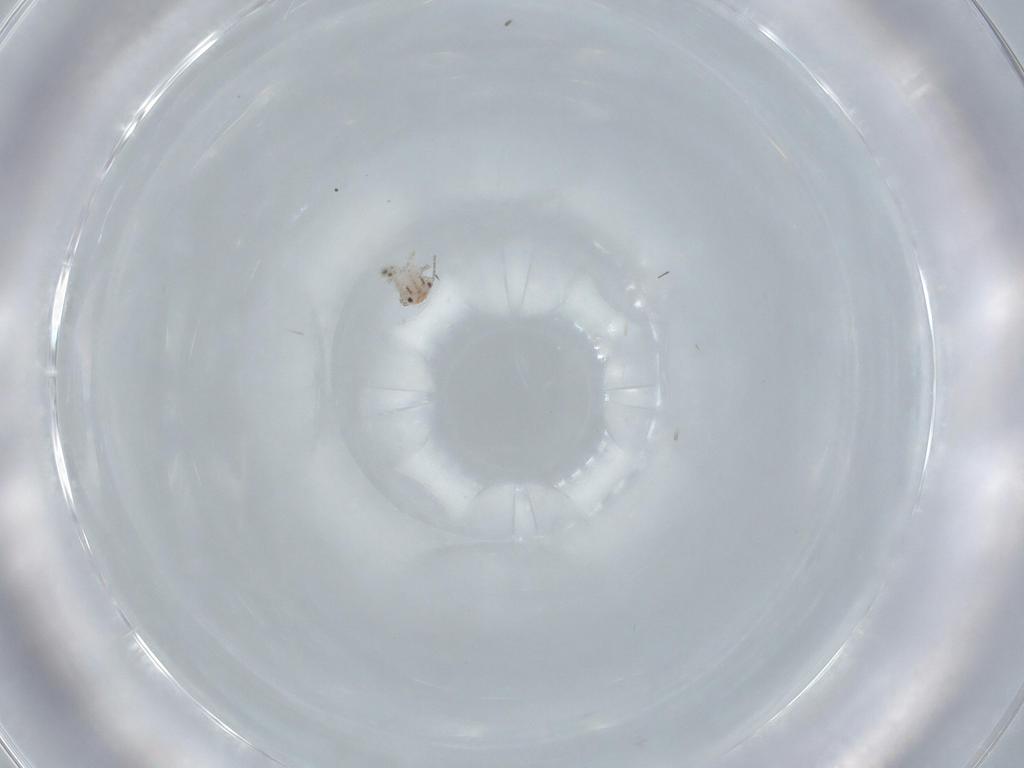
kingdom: Animalia
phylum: Arthropoda
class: Insecta
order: Psocodea
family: Lepidopsocidae
